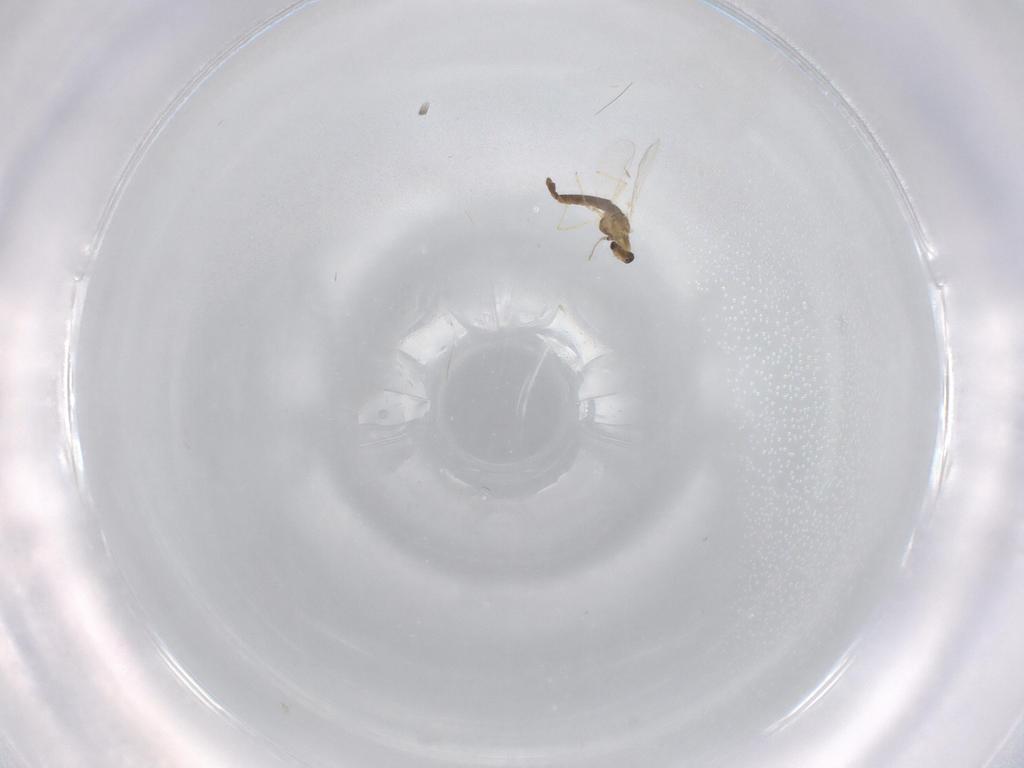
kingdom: Animalia
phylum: Arthropoda
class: Insecta
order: Diptera
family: Chironomidae
